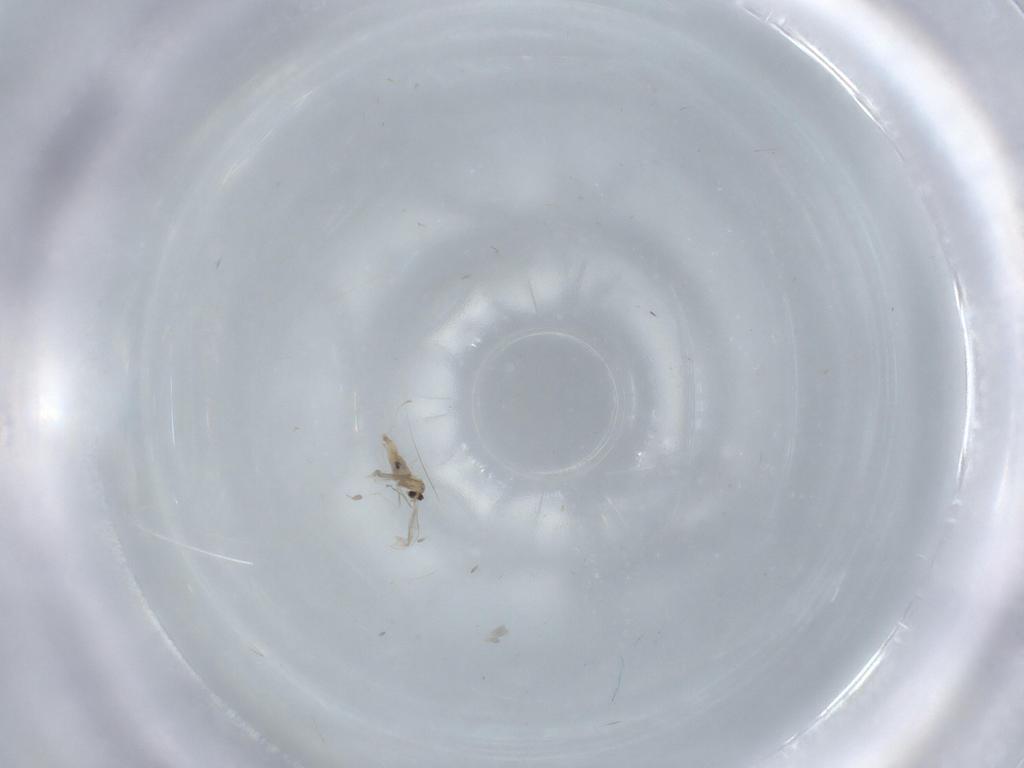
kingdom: Animalia
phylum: Arthropoda
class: Insecta
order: Diptera
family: Cecidomyiidae
